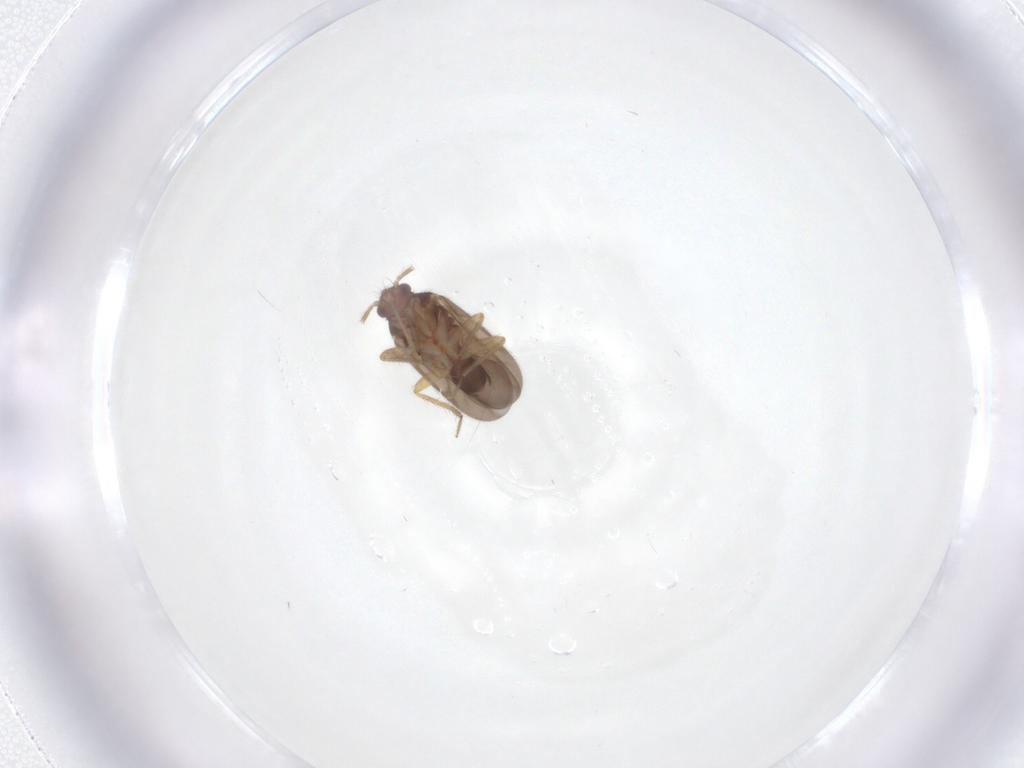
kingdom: Animalia
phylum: Arthropoda
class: Insecta
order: Hemiptera
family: Ceratocombidae
